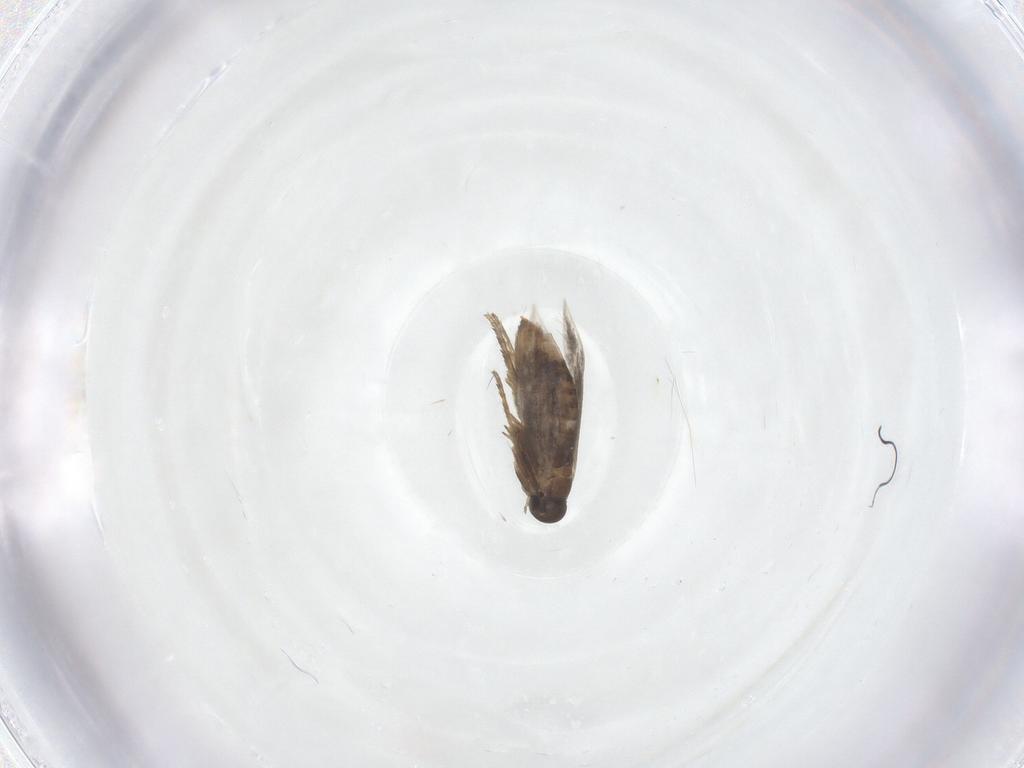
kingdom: Animalia
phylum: Arthropoda
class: Insecta
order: Lepidoptera
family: Heliozelidae
